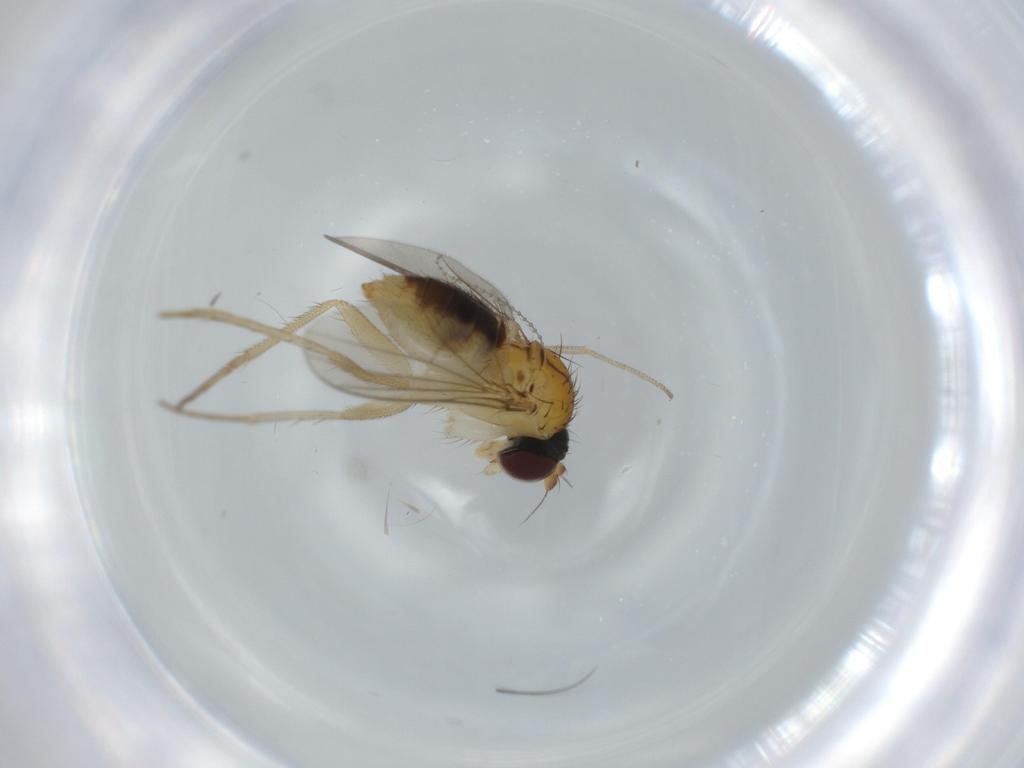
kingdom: Animalia
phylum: Arthropoda
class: Insecta
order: Diptera
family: Dolichopodidae
